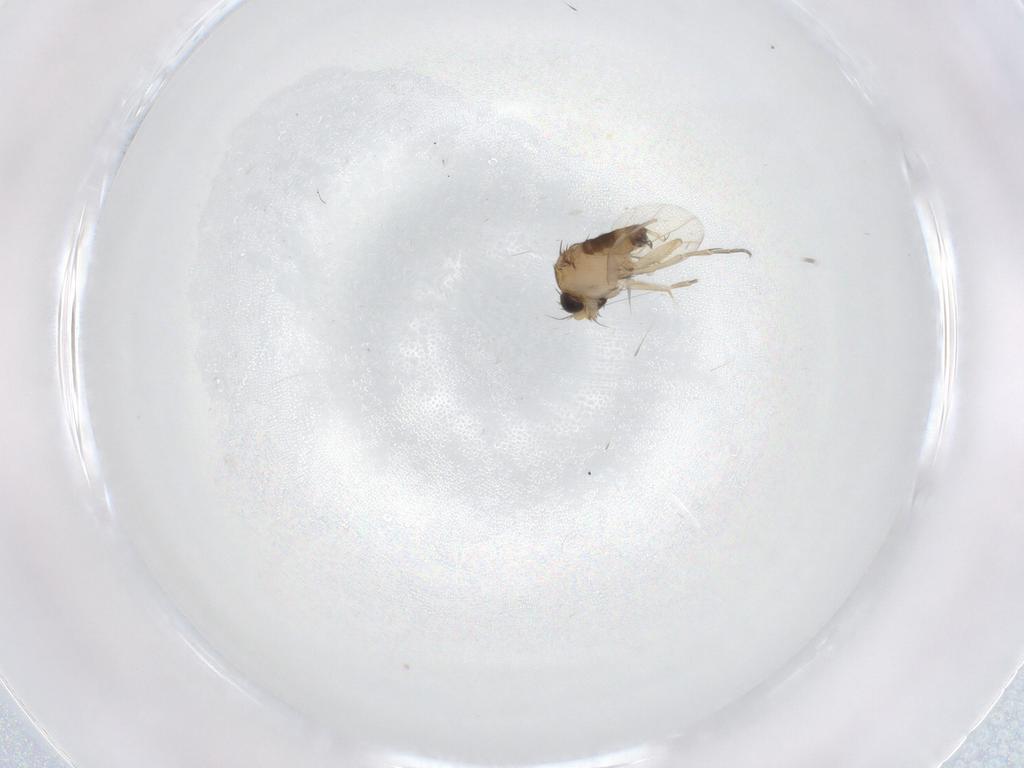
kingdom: Animalia
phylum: Arthropoda
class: Insecta
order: Diptera
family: Phoridae
